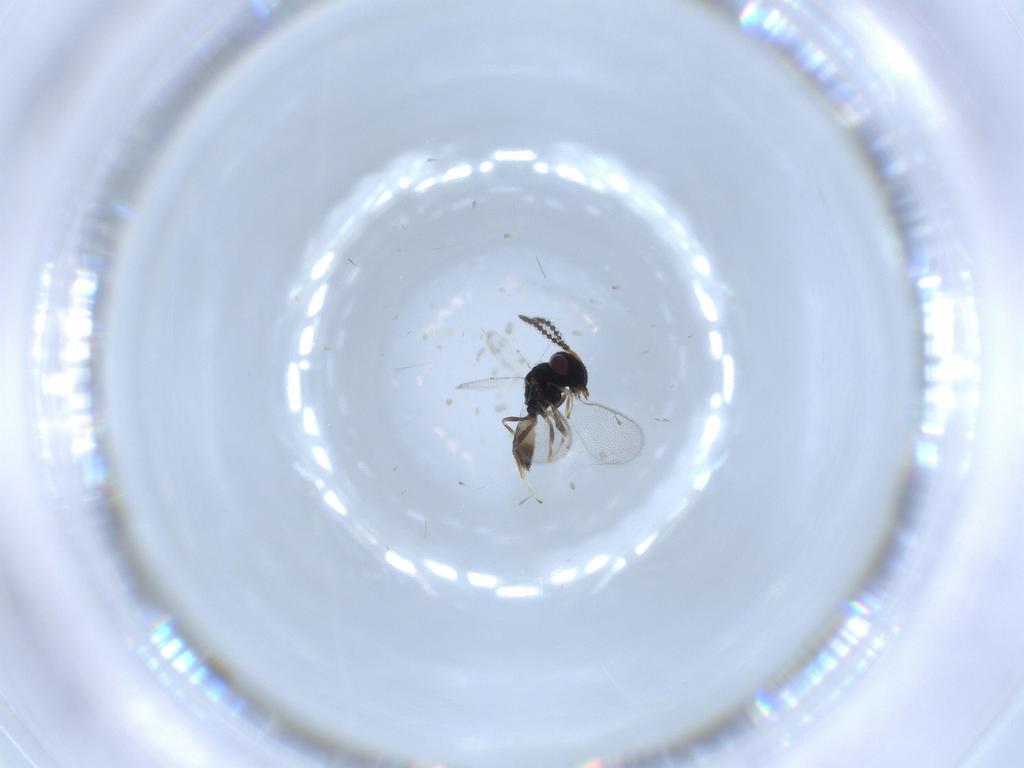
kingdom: Animalia
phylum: Arthropoda
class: Insecta
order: Hymenoptera
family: Pteromalidae
